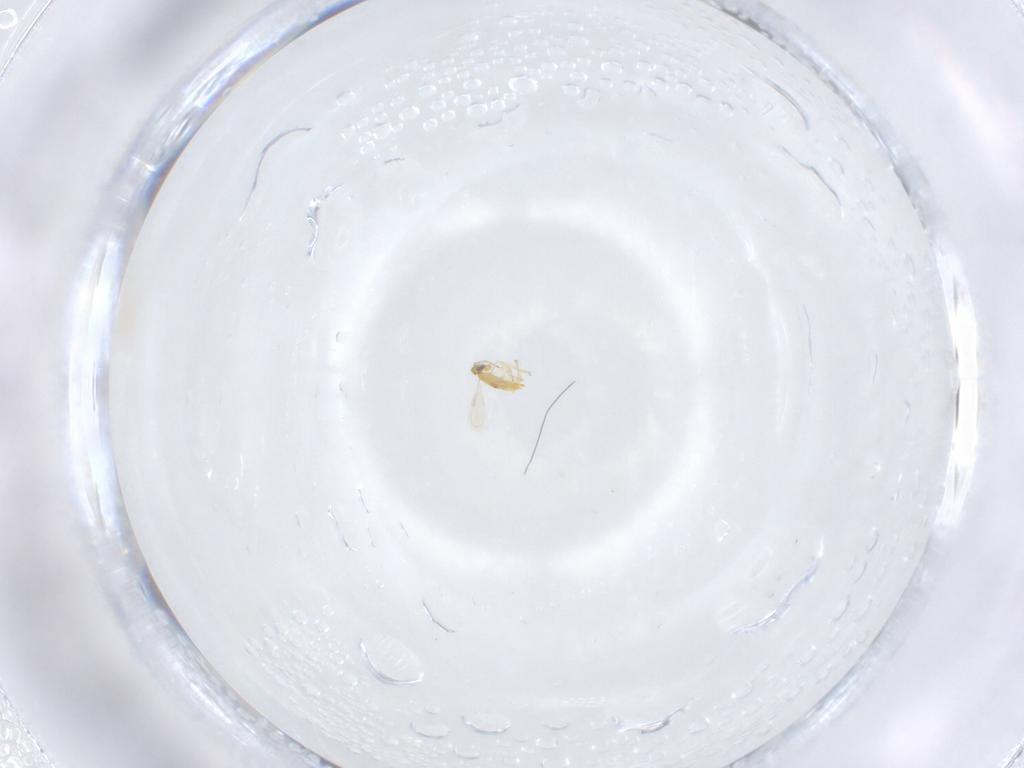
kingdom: Animalia
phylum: Arthropoda
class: Insecta
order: Hymenoptera
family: Aphelinidae
